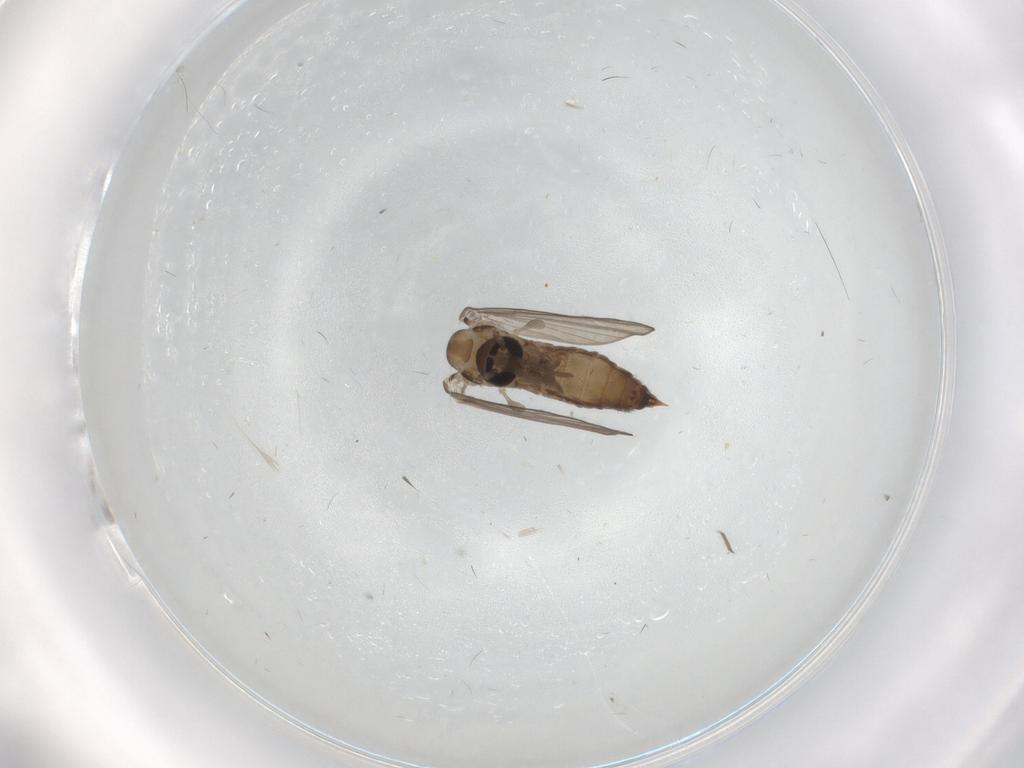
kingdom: Animalia
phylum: Arthropoda
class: Insecta
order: Diptera
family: Psychodidae
